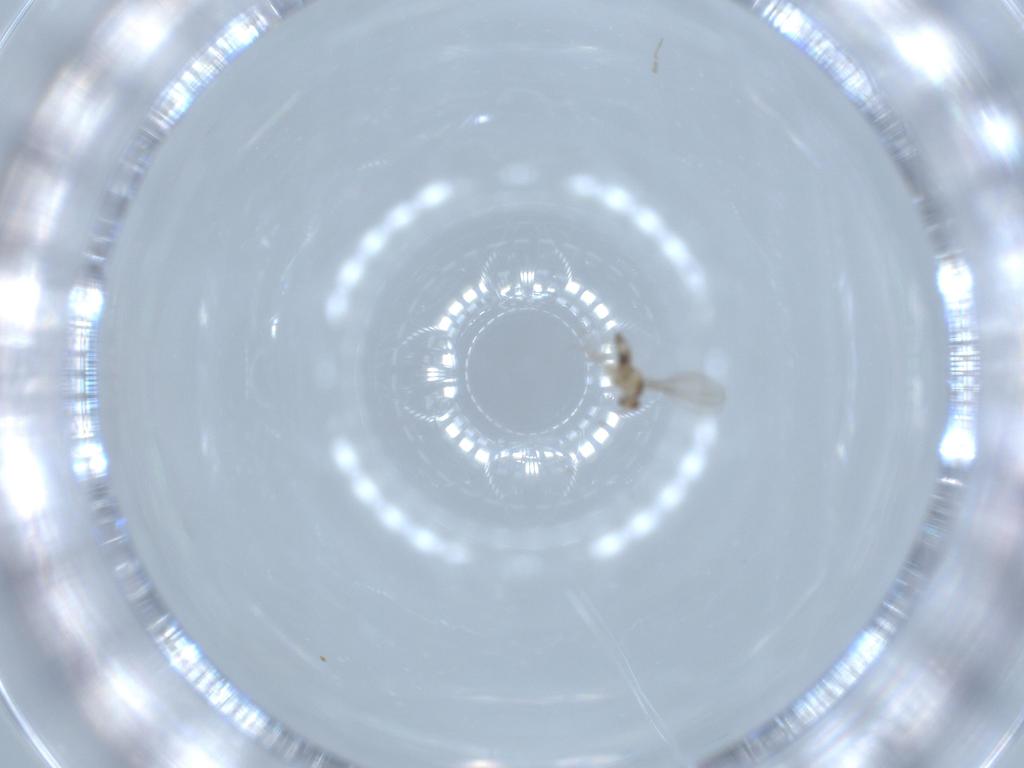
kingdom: Animalia
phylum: Arthropoda
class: Insecta
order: Diptera
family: Cecidomyiidae
